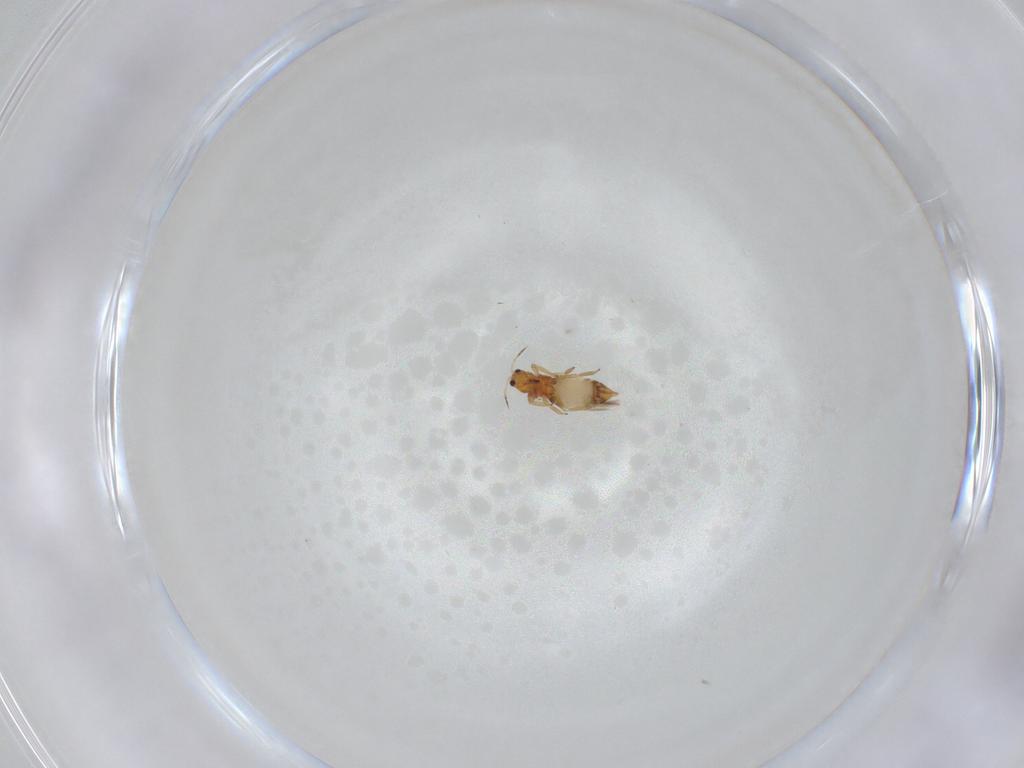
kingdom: Animalia
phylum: Arthropoda
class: Insecta
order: Thysanoptera
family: Thripidae
